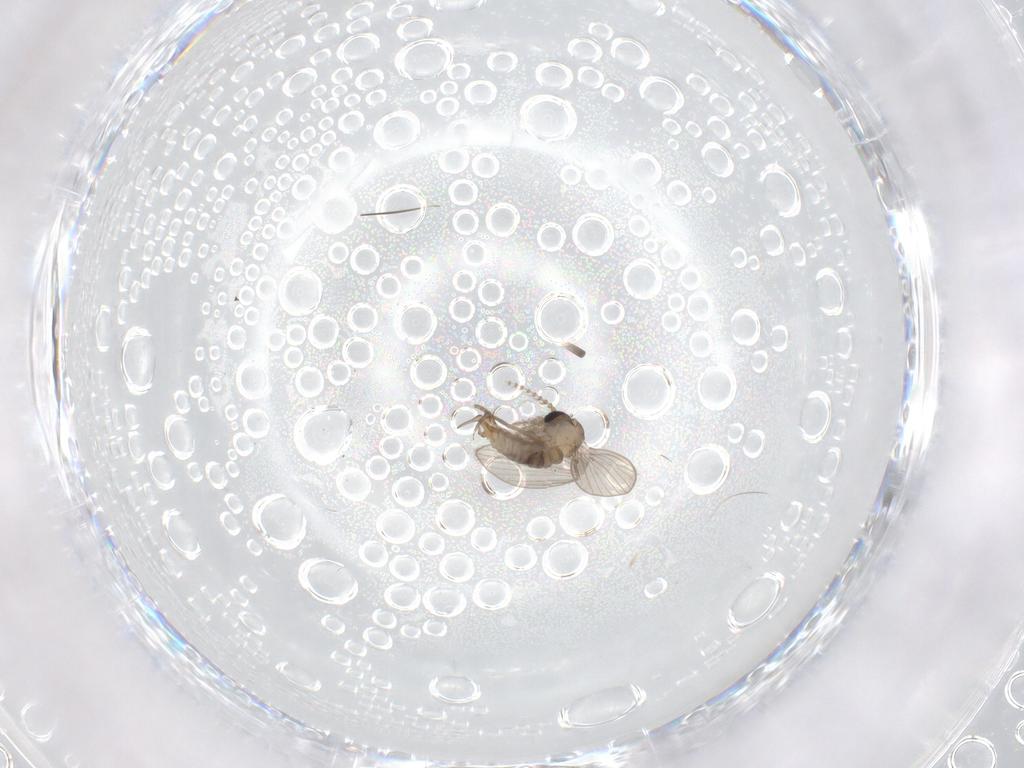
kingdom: Animalia
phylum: Arthropoda
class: Insecta
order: Diptera
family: Psychodidae
